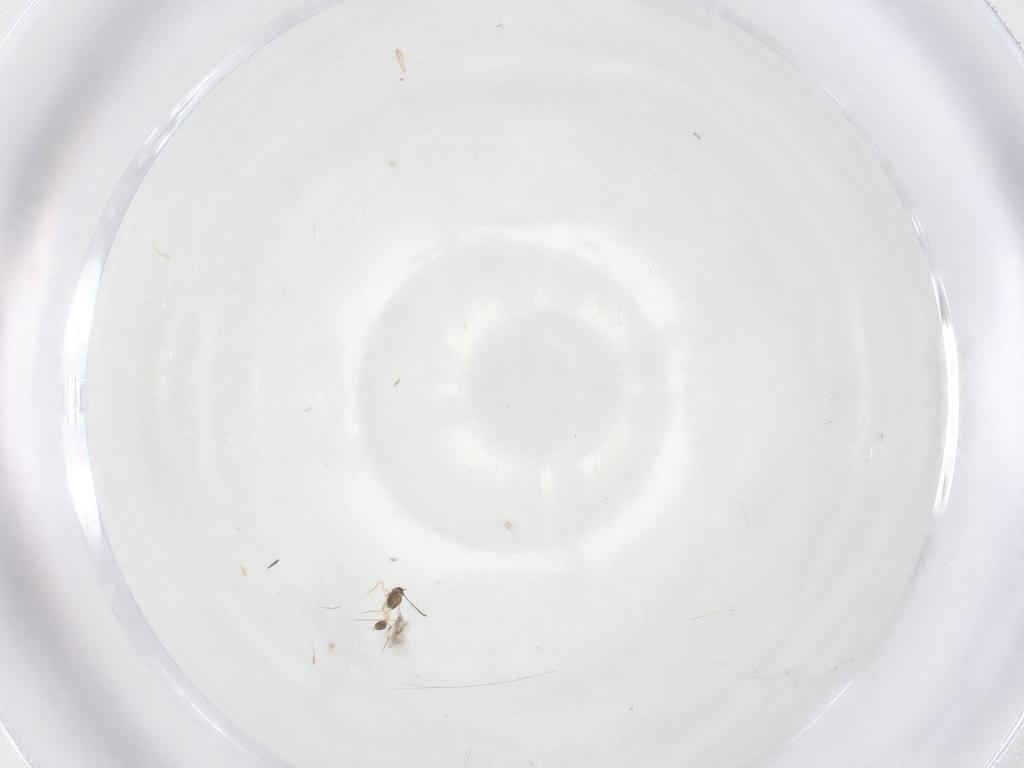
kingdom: Animalia
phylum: Arthropoda
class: Insecta
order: Hymenoptera
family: Mymarommatidae
